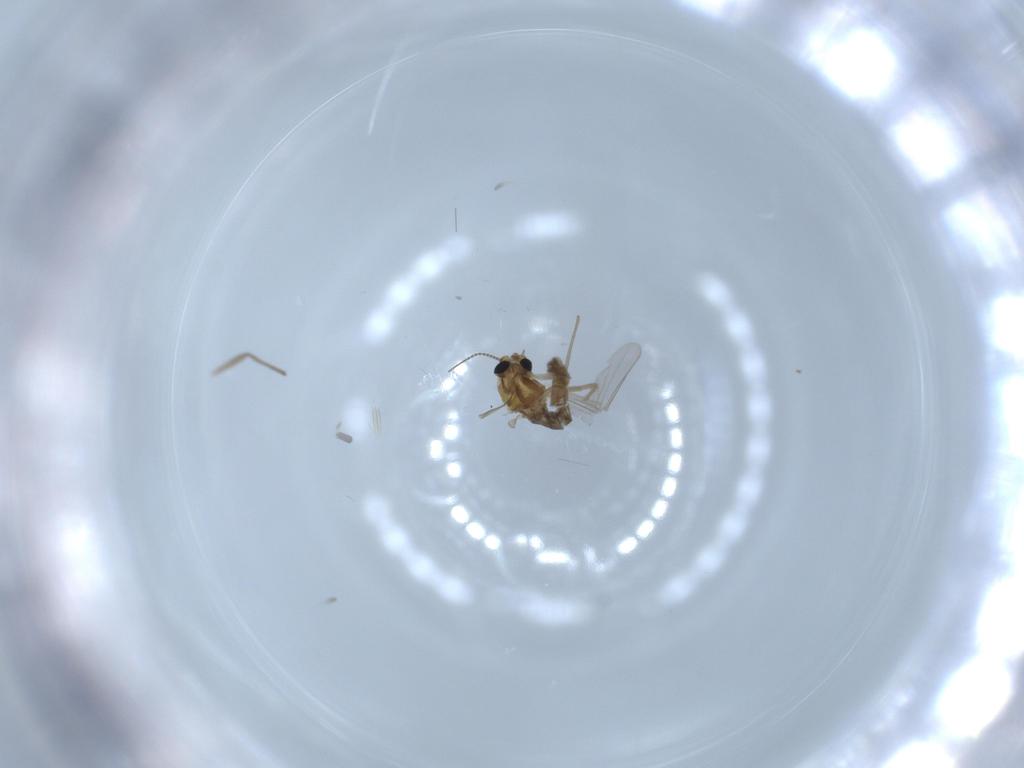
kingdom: Animalia
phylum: Arthropoda
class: Insecta
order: Diptera
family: Chironomidae
